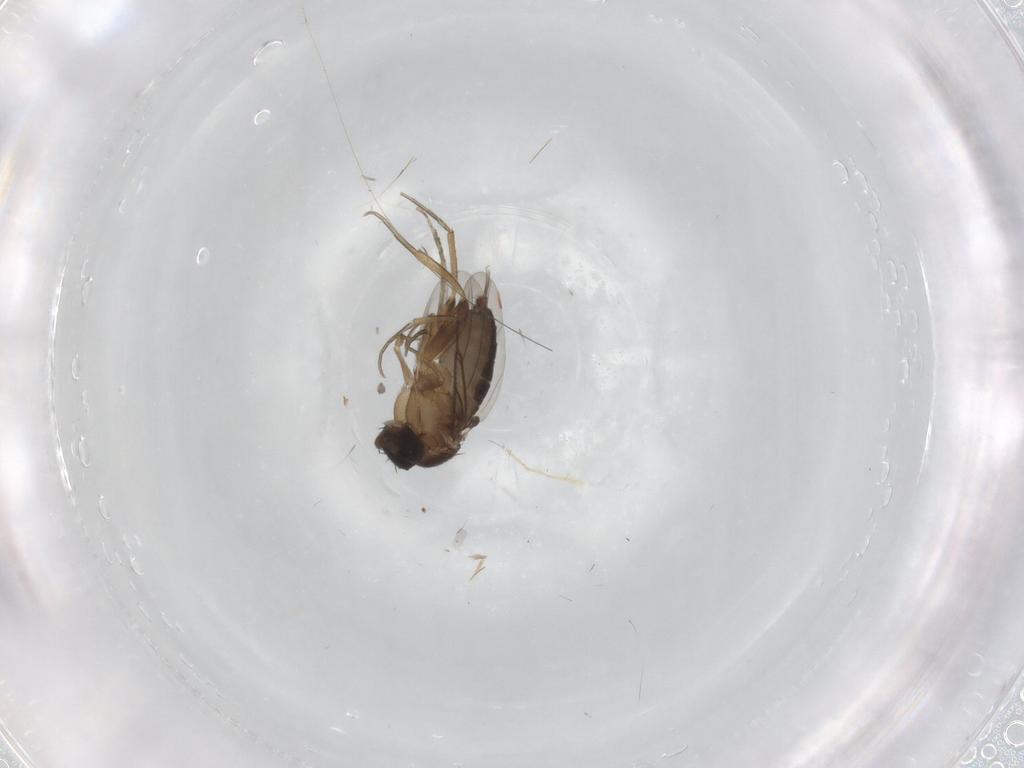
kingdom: Animalia
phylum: Arthropoda
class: Insecta
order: Diptera
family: Chironomidae
